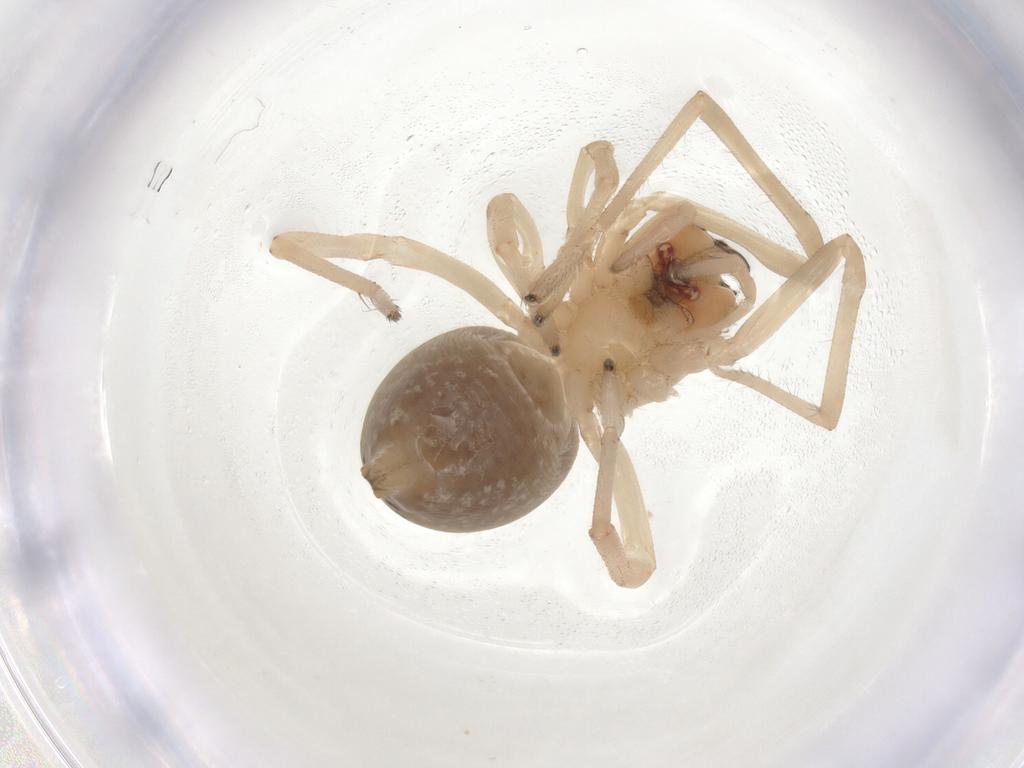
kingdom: Animalia
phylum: Arthropoda
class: Arachnida
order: Araneae
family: Cheiracanthiidae
